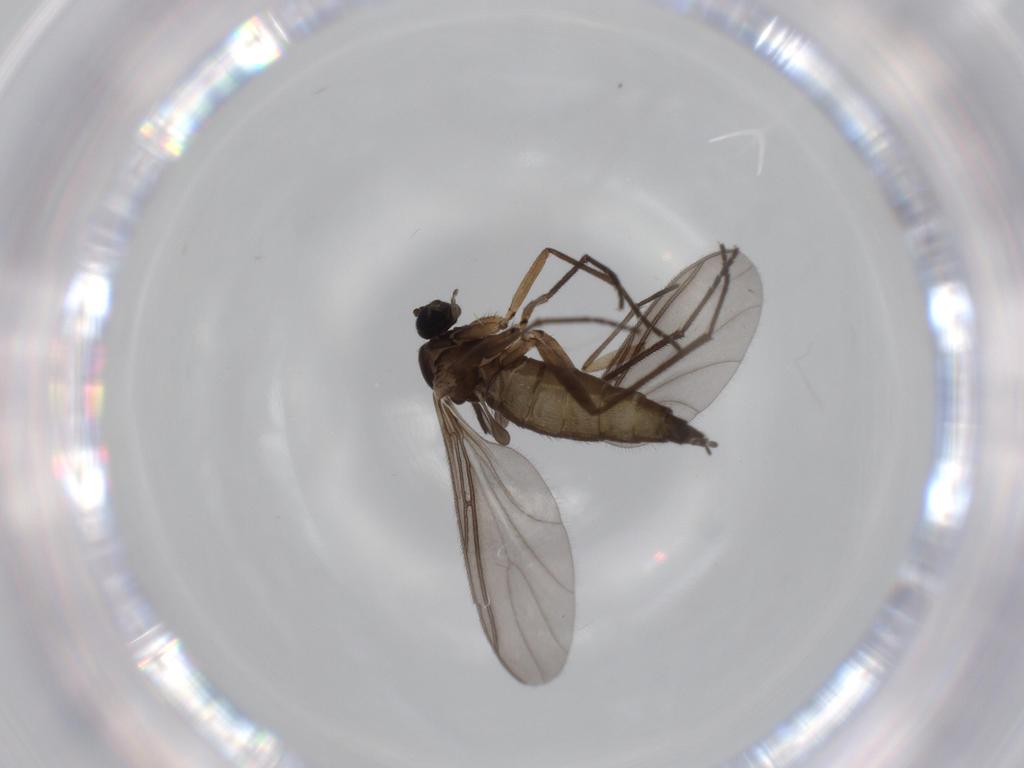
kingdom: Animalia
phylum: Arthropoda
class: Insecta
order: Diptera
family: Sciaridae
